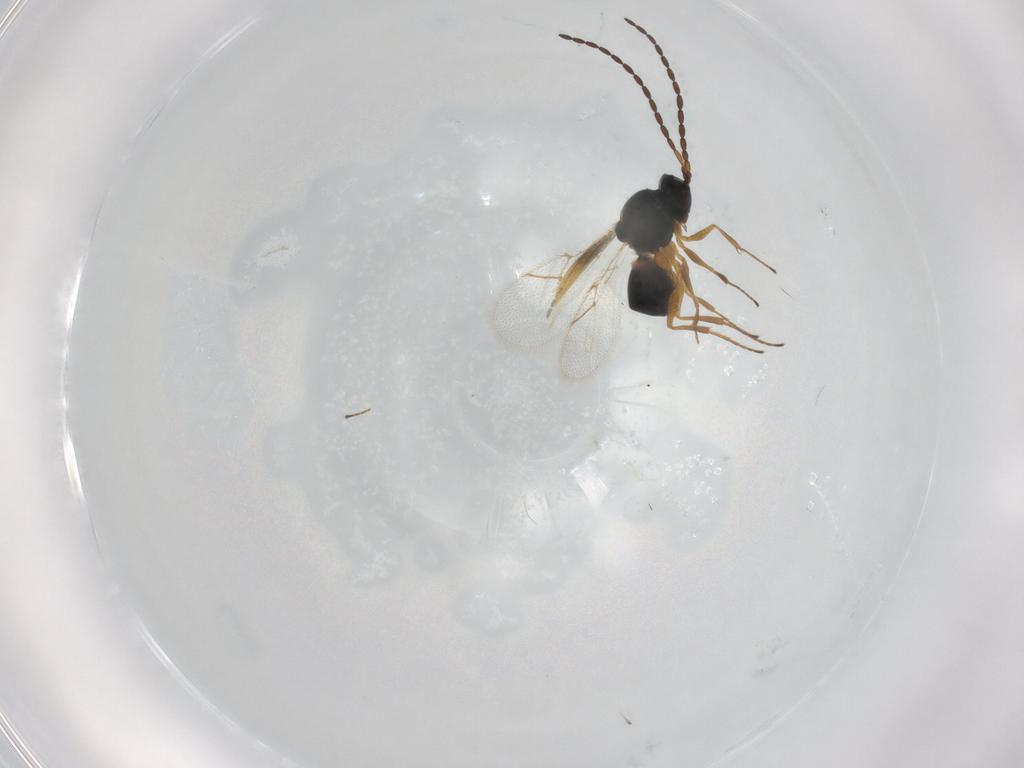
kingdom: Animalia
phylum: Arthropoda
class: Insecta
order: Hymenoptera
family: Cynipidae
